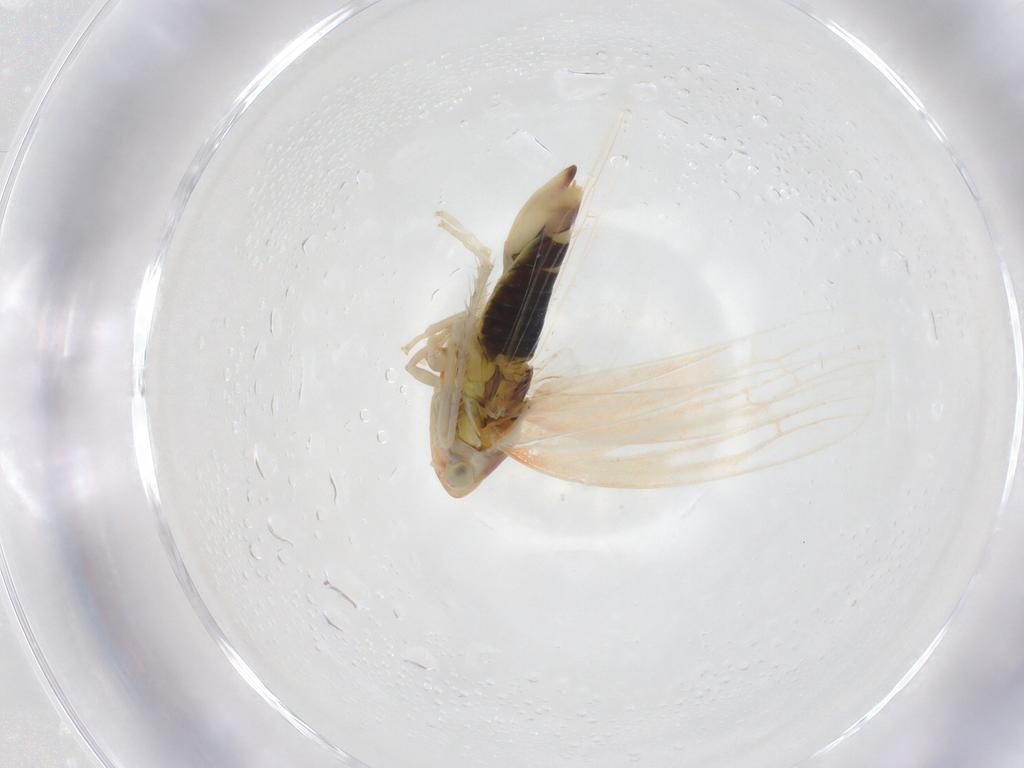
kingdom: Animalia
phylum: Arthropoda
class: Insecta
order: Hemiptera
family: Cicadellidae
